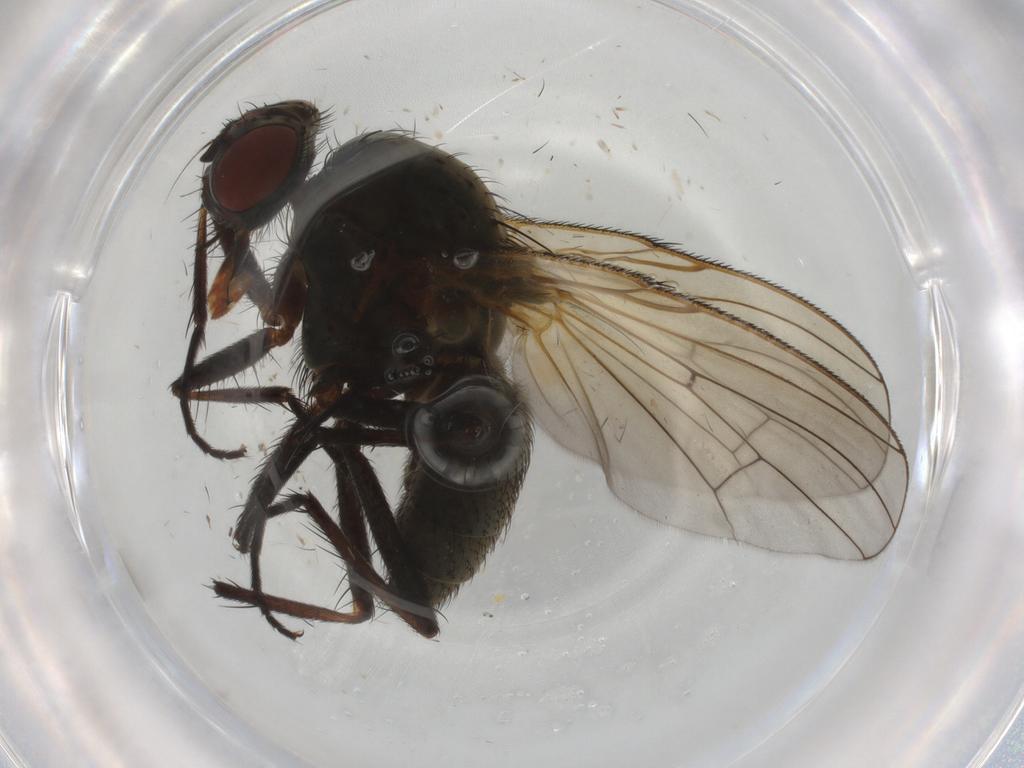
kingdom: Animalia
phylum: Arthropoda
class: Insecta
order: Diptera
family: Anthomyiidae
